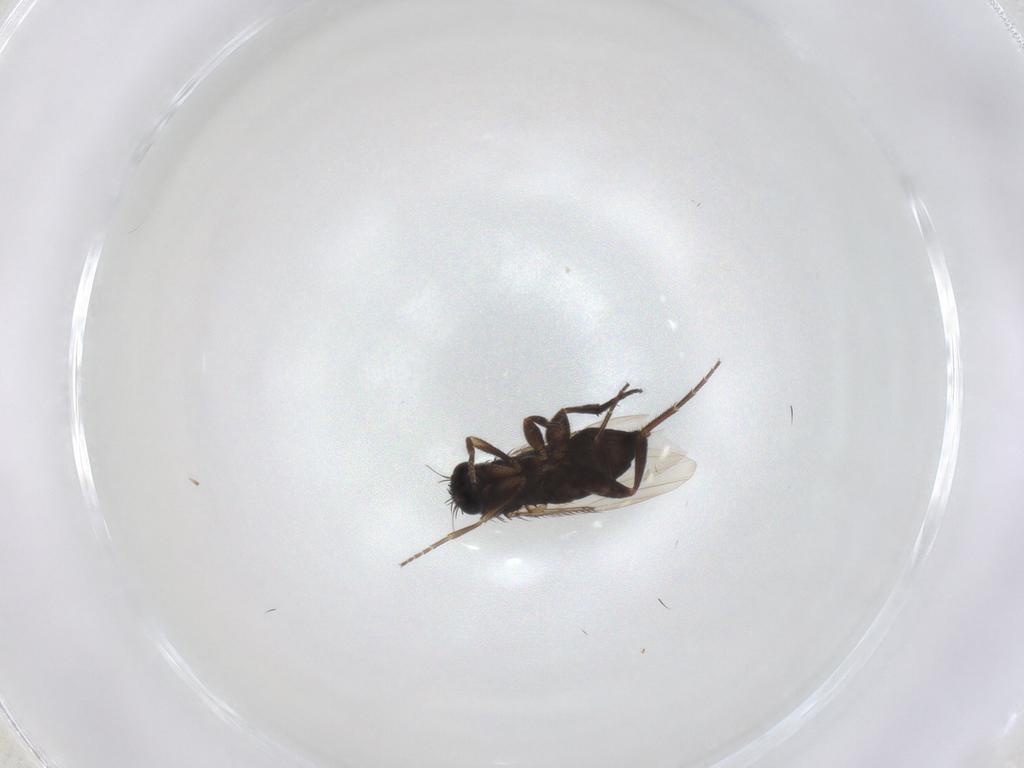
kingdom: Animalia
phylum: Arthropoda
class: Insecta
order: Diptera
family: Phoridae
